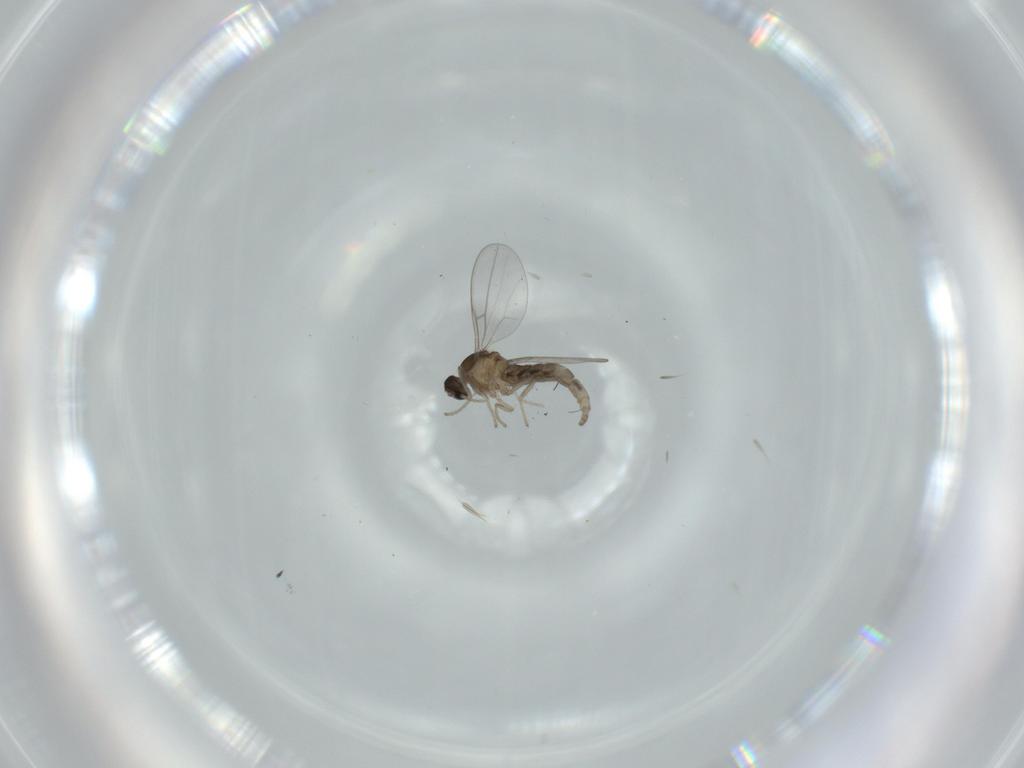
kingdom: Animalia
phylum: Arthropoda
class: Insecta
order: Diptera
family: Cecidomyiidae
